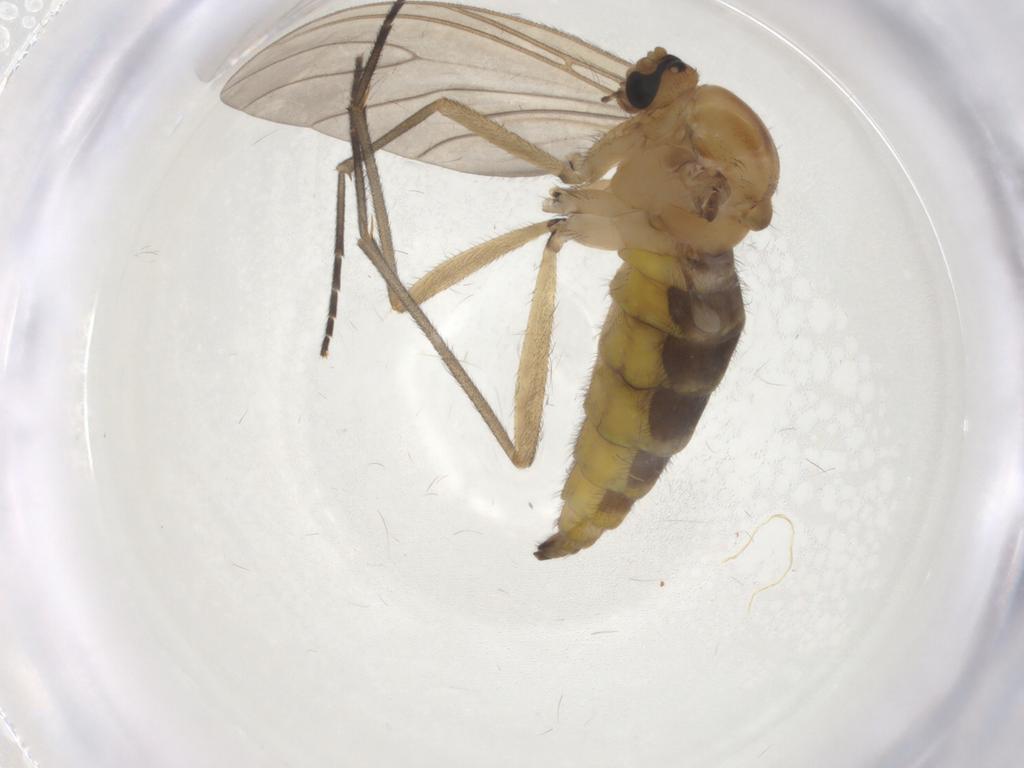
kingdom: Animalia
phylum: Arthropoda
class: Insecta
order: Diptera
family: Sciaridae
